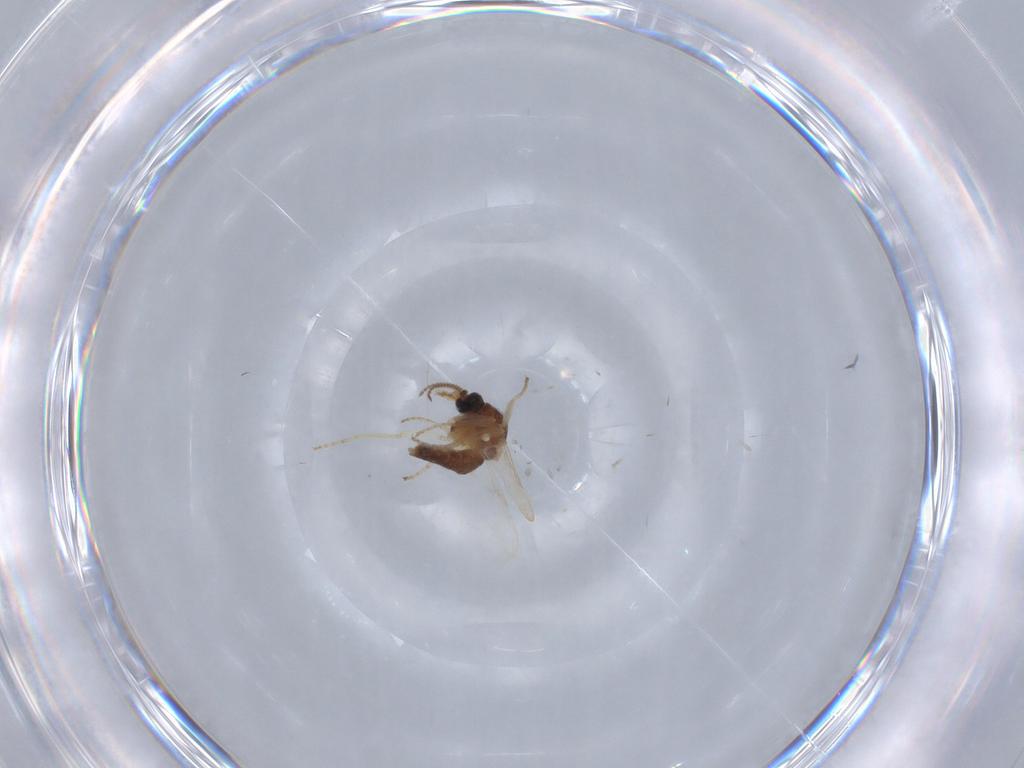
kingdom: Animalia
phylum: Arthropoda
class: Insecta
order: Diptera
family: Ceratopogonidae
